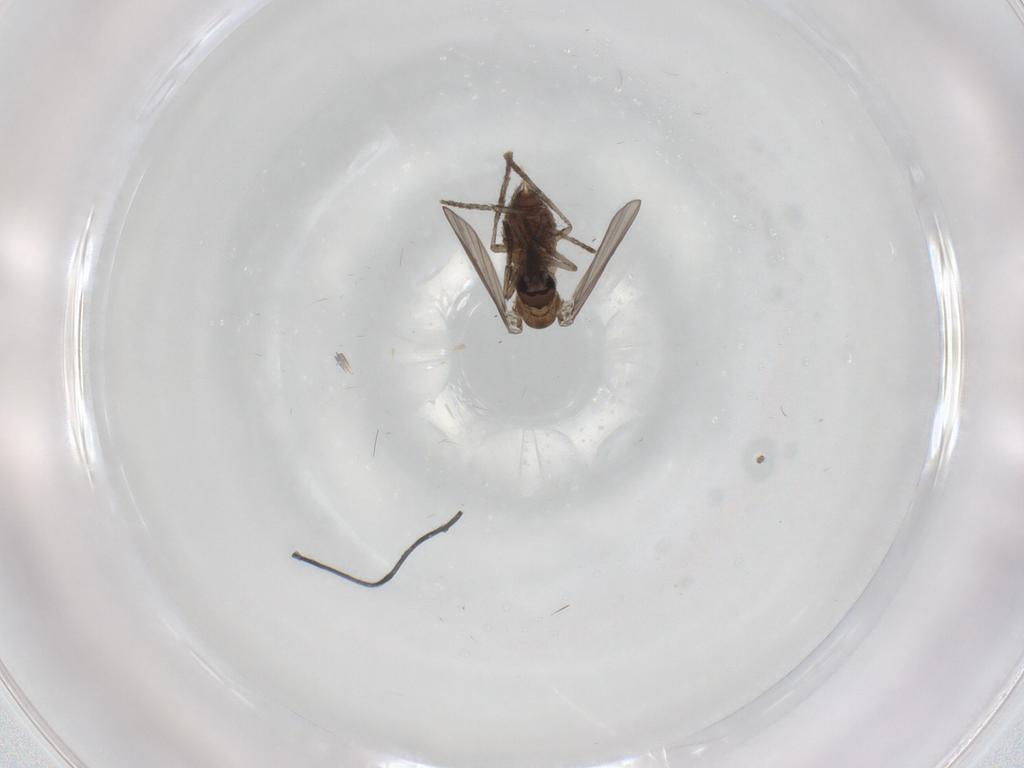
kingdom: Animalia
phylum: Arthropoda
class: Insecta
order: Diptera
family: Psychodidae
